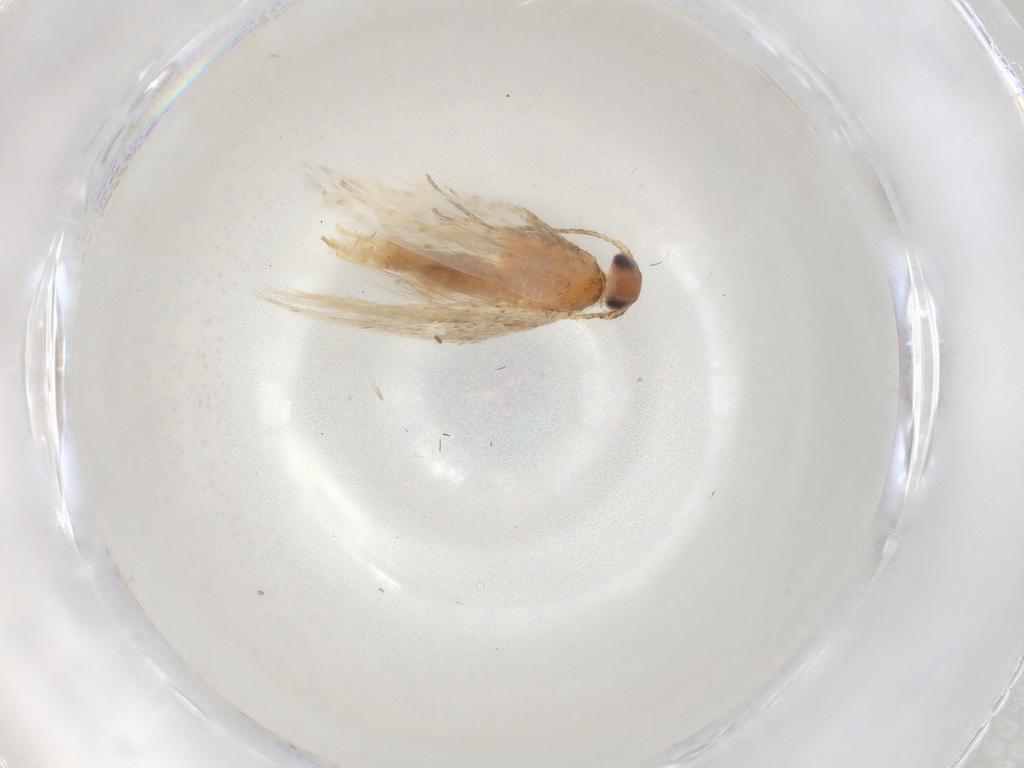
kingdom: Animalia
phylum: Arthropoda
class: Insecta
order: Lepidoptera
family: Gelechiidae
